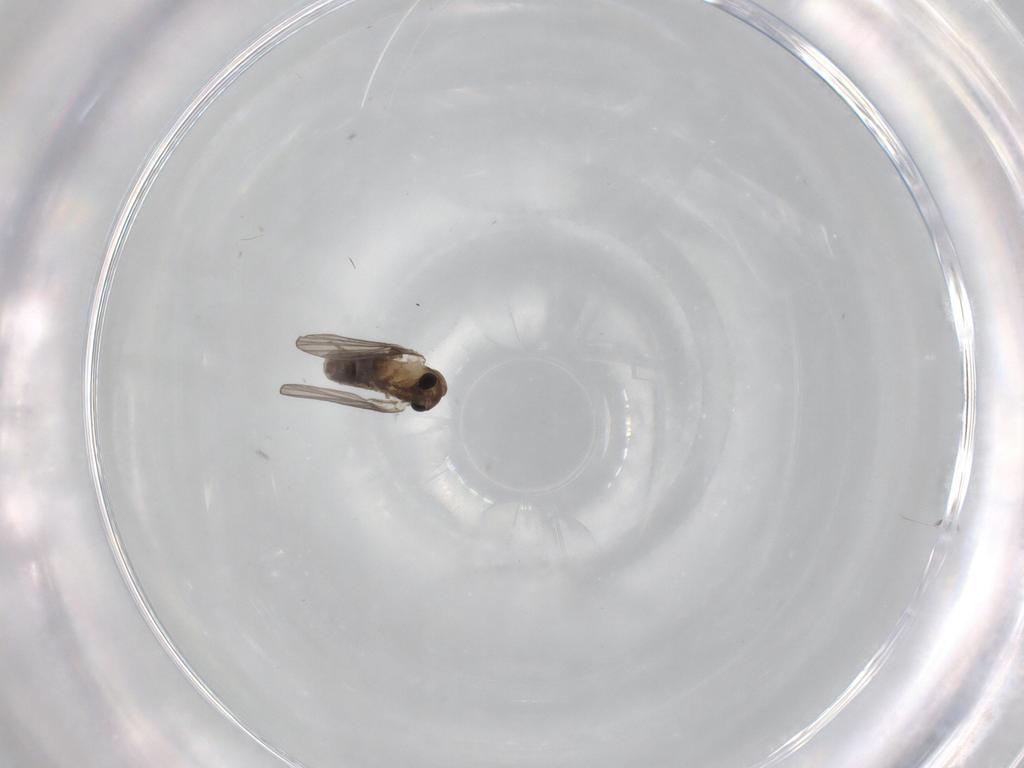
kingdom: Animalia
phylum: Arthropoda
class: Insecta
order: Diptera
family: Psychodidae
